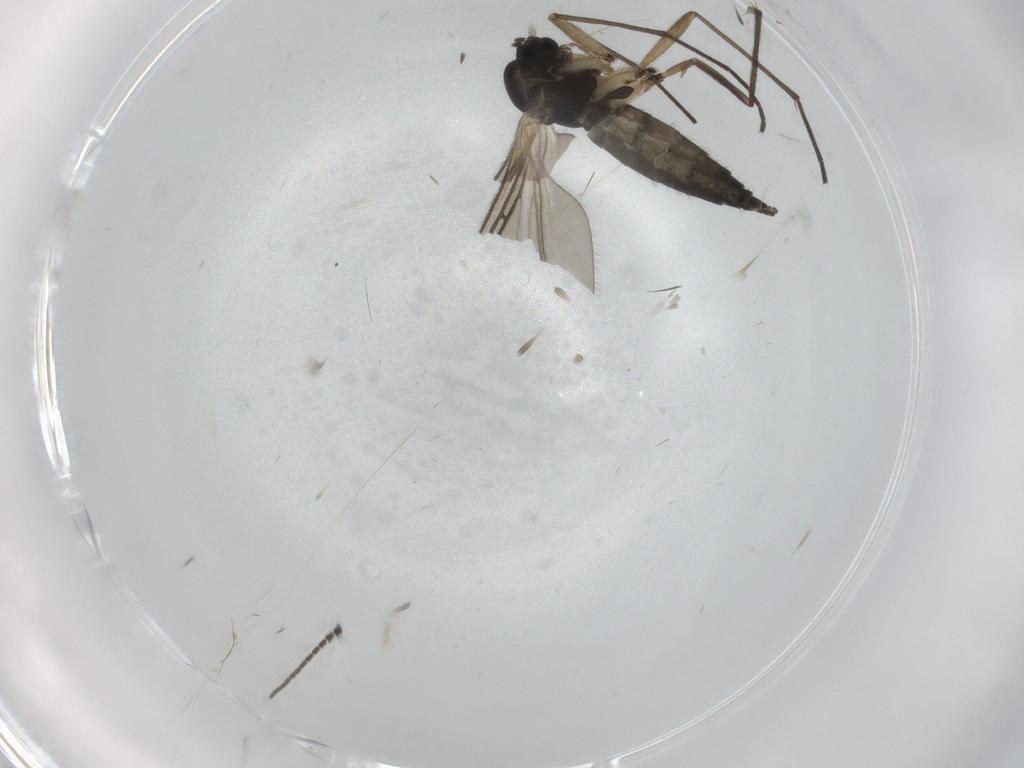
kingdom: Animalia
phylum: Arthropoda
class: Insecta
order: Diptera
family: Sciaridae
